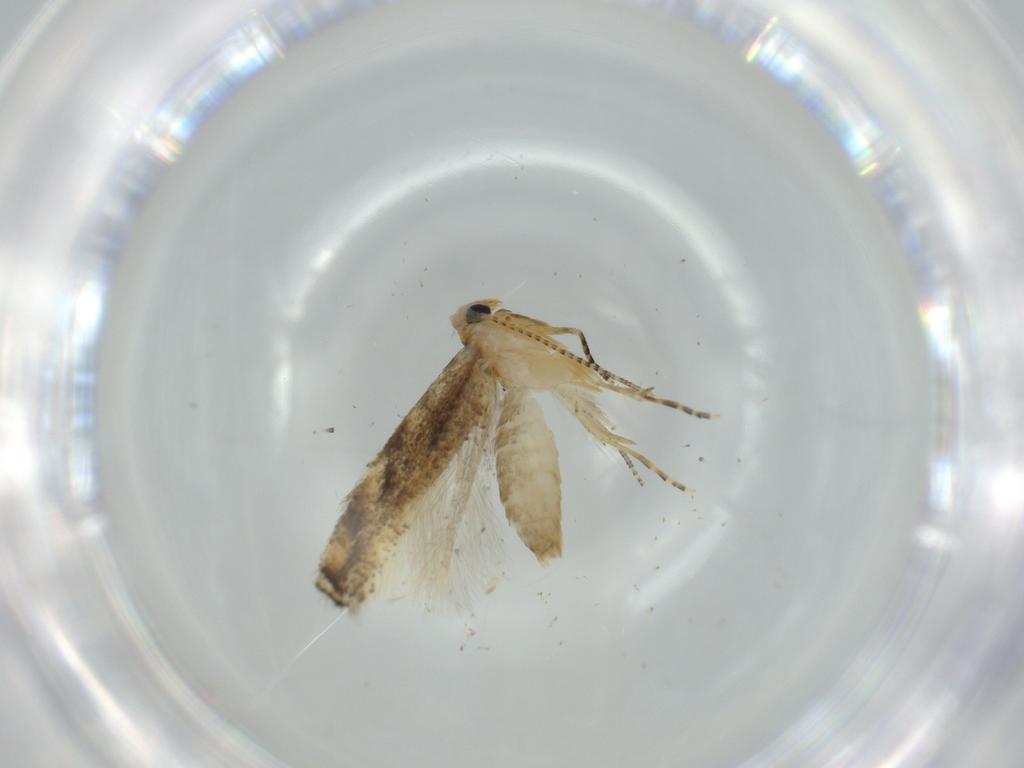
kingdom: Animalia
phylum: Arthropoda
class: Insecta
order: Lepidoptera
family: Bucculatricidae
